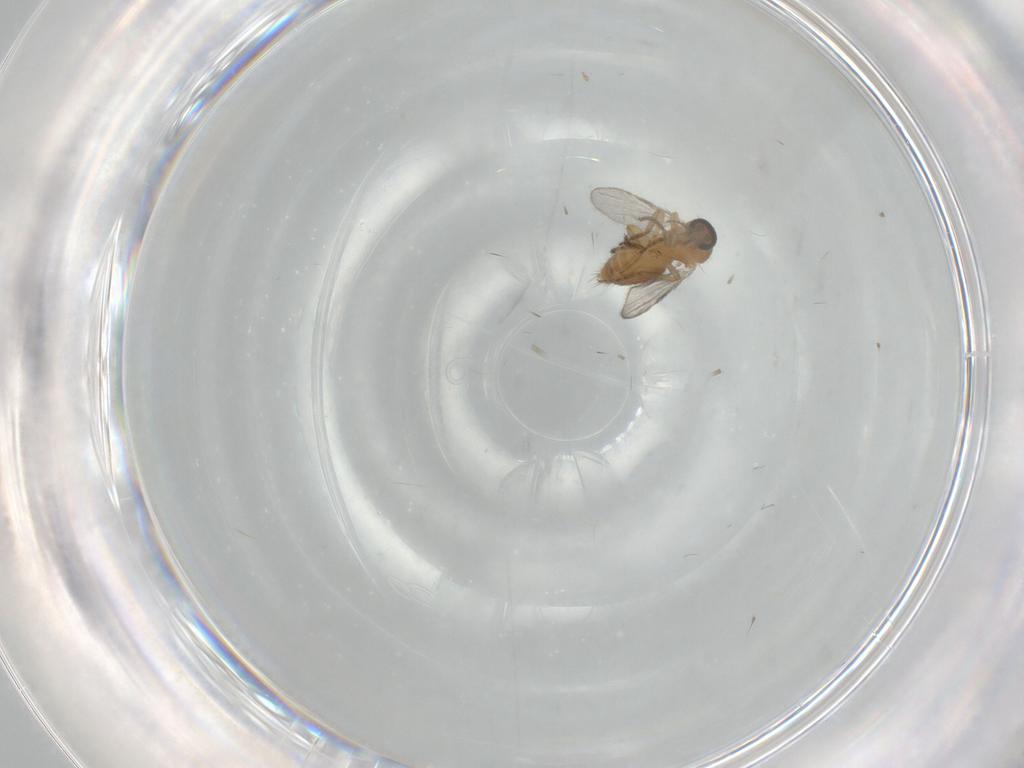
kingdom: Animalia
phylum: Arthropoda
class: Insecta
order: Diptera
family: Ceratopogonidae
